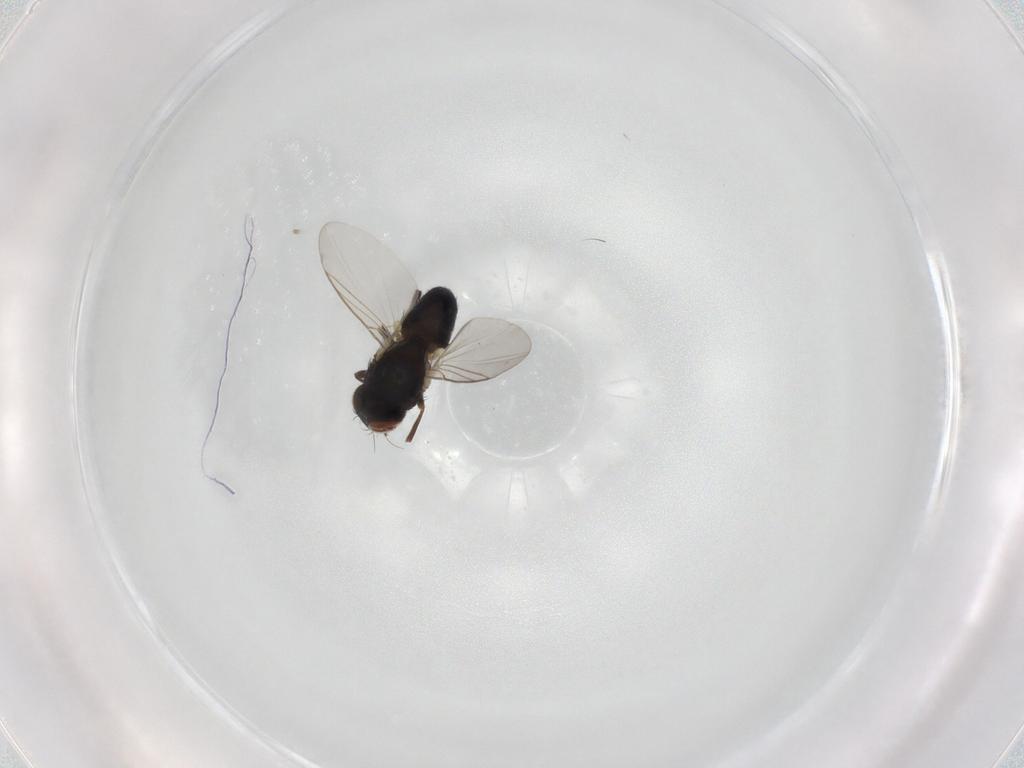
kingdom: Animalia
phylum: Arthropoda
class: Insecta
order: Diptera
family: Agromyzidae
